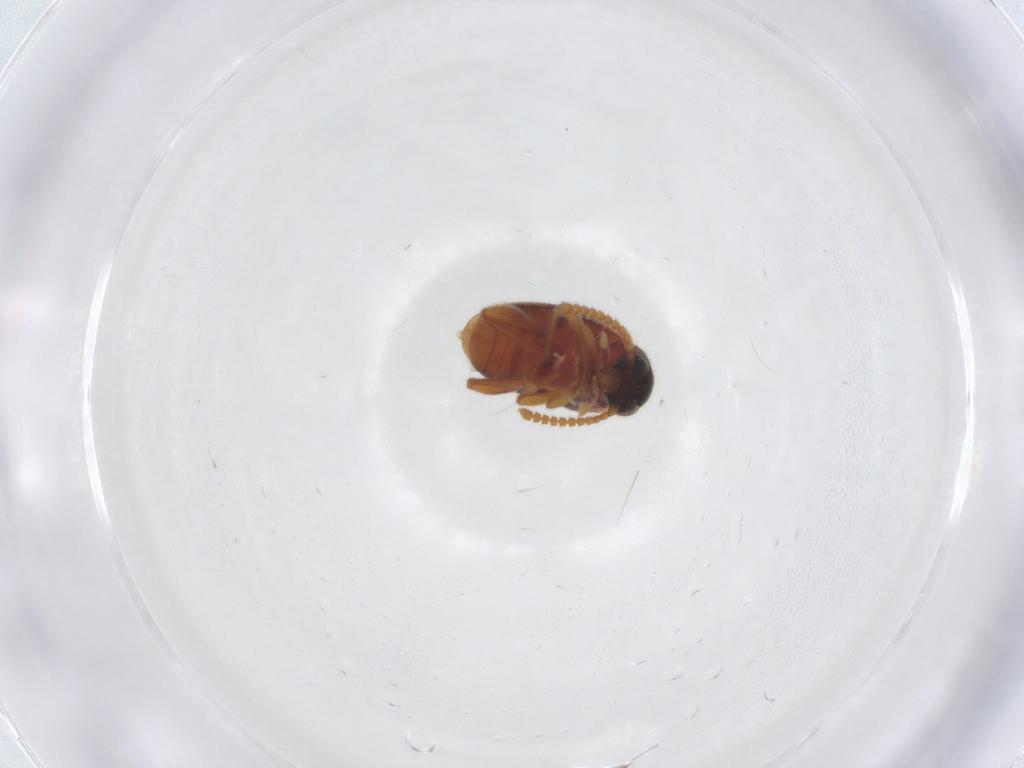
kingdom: Animalia
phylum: Arthropoda
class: Insecta
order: Coleoptera
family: Aderidae
